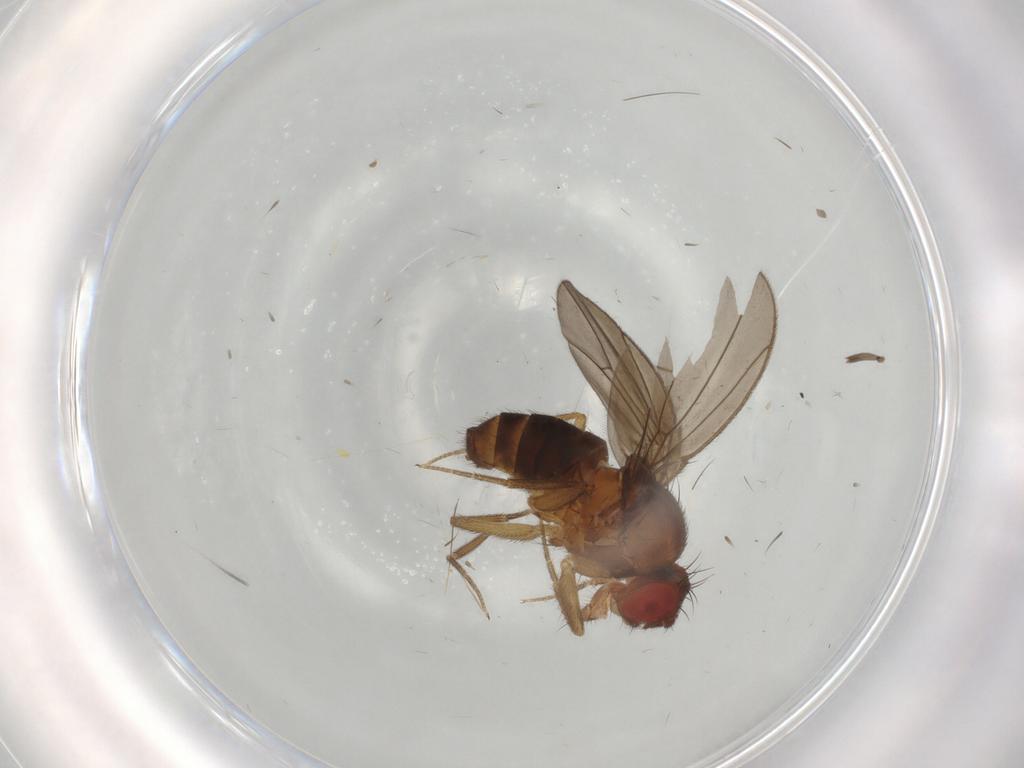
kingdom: Animalia
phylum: Arthropoda
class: Insecta
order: Diptera
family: Drosophilidae
